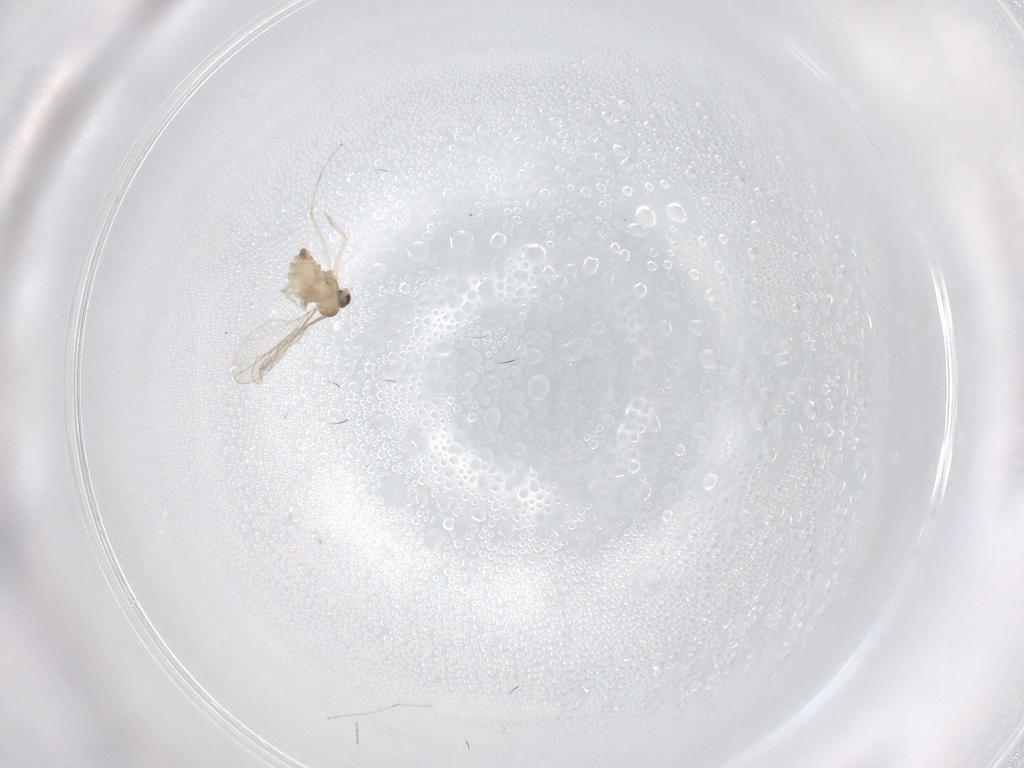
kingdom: Animalia
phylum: Arthropoda
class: Insecta
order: Diptera
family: Cecidomyiidae
